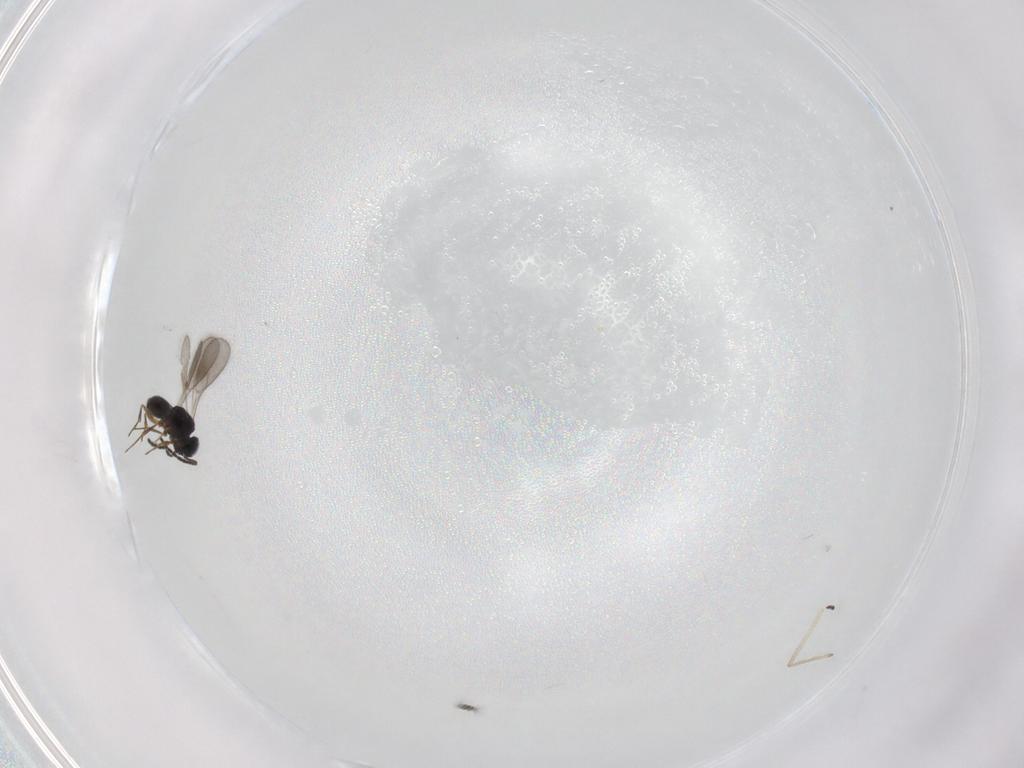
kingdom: Animalia
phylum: Arthropoda
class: Insecta
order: Hymenoptera
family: Scelionidae
